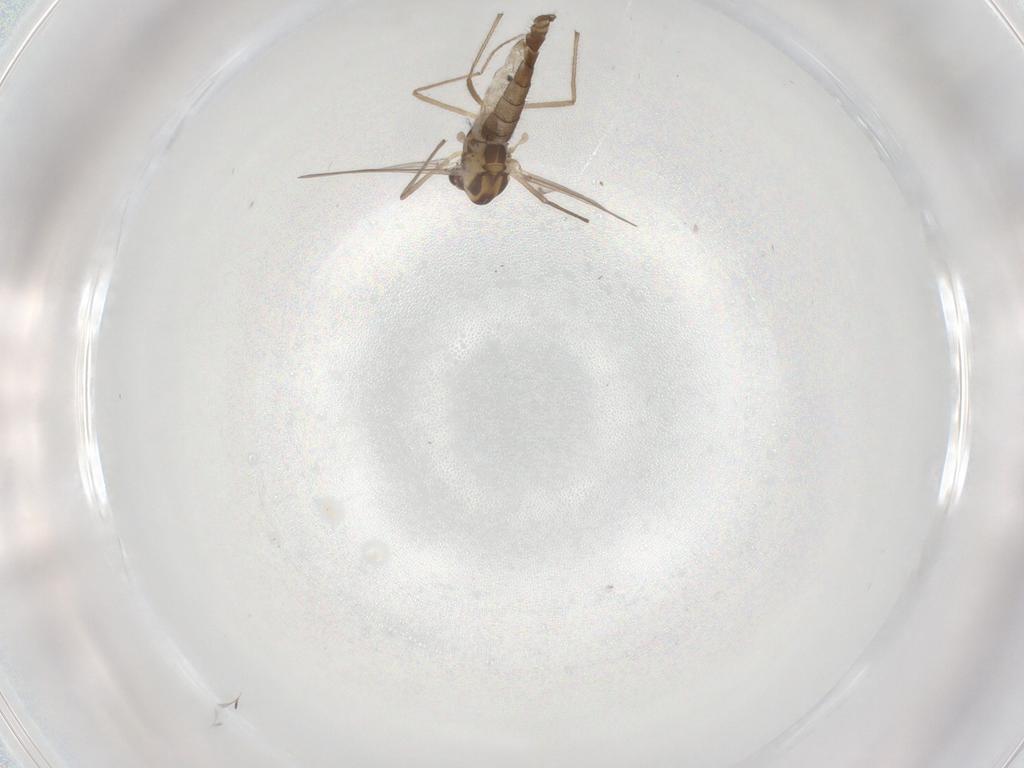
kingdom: Animalia
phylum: Arthropoda
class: Insecta
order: Diptera
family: Chironomidae
